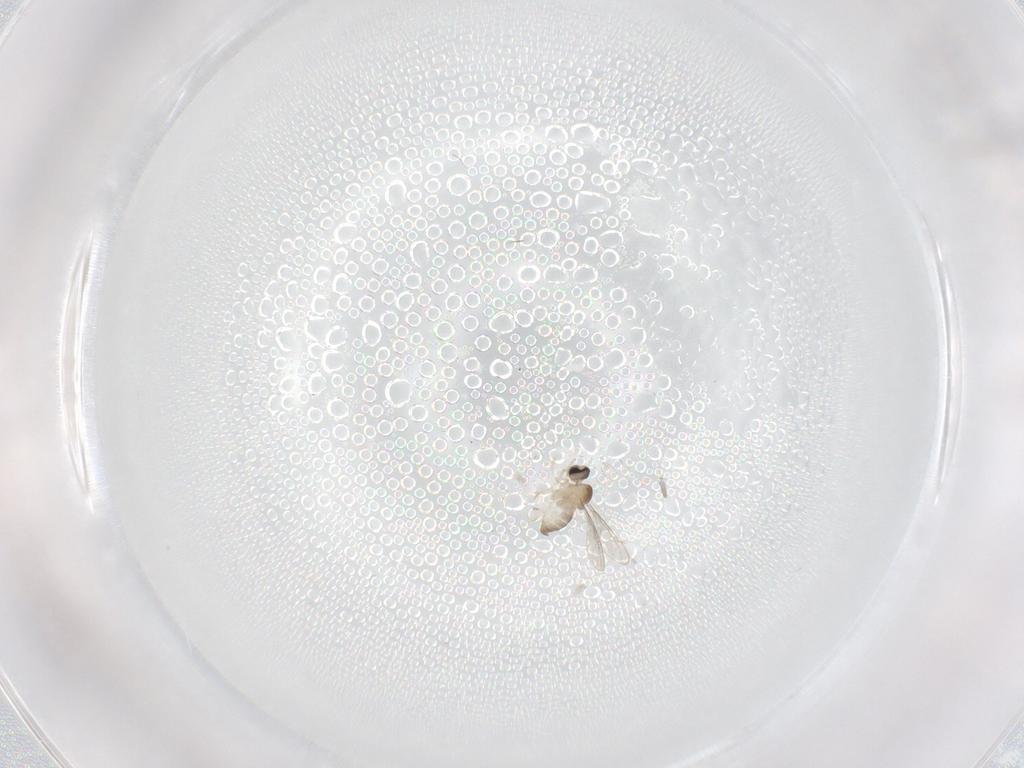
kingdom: Animalia
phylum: Arthropoda
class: Insecta
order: Diptera
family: Cecidomyiidae
